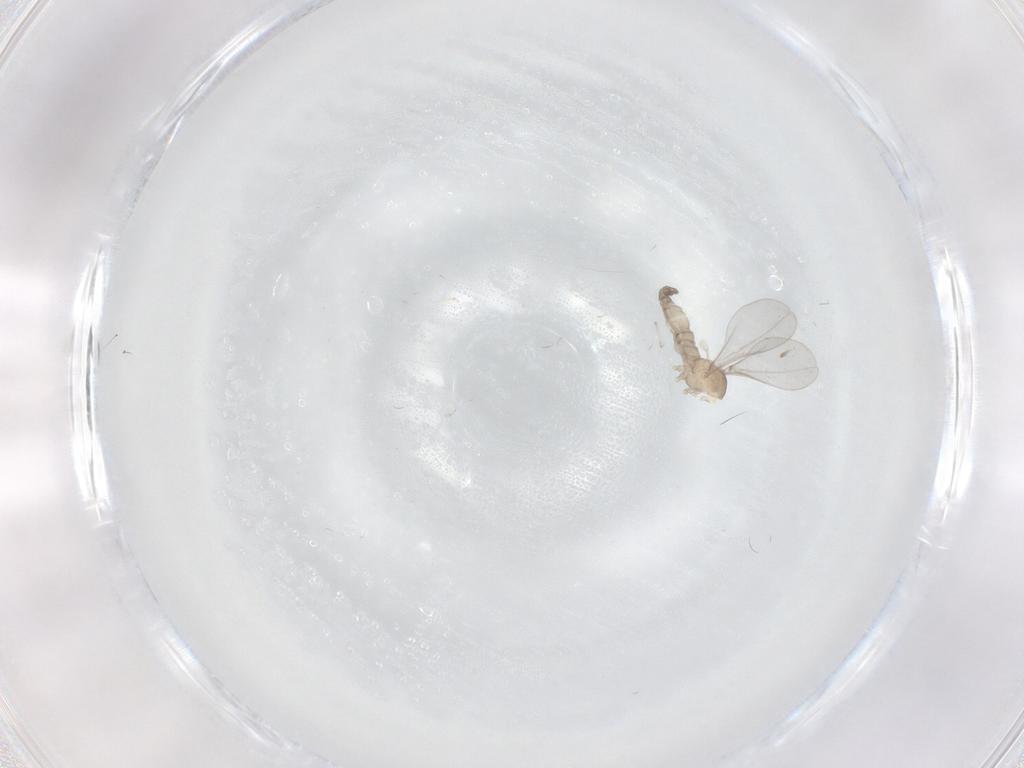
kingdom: Animalia
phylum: Arthropoda
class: Insecta
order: Diptera
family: Cecidomyiidae
